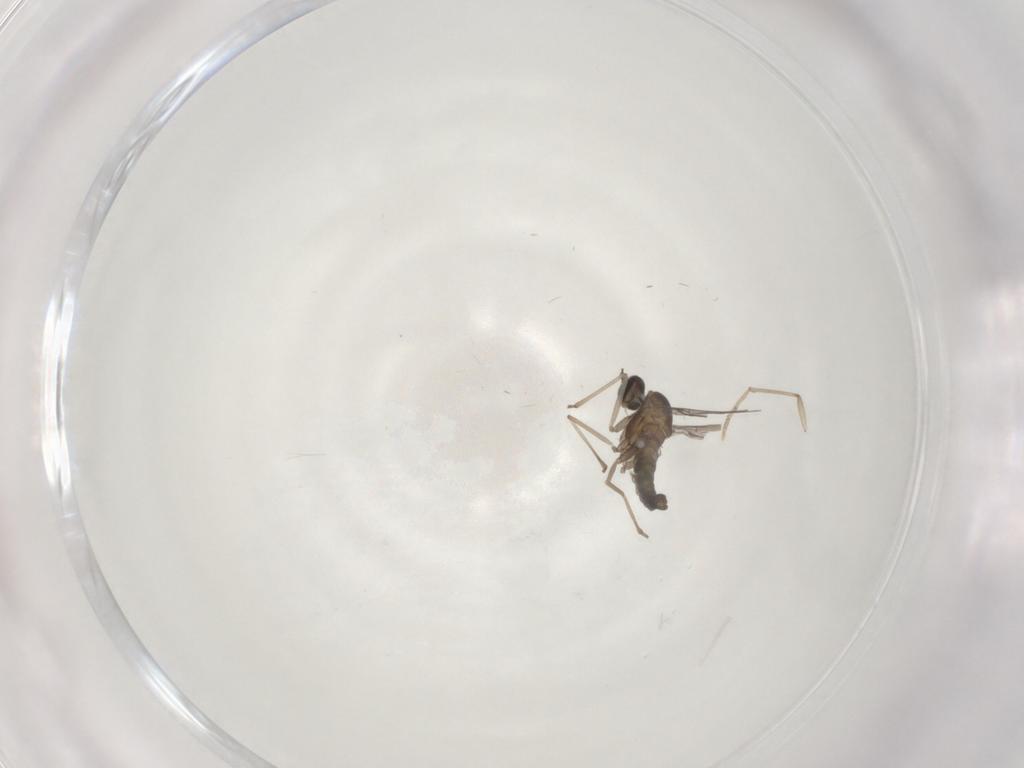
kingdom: Animalia
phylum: Arthropoda
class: Insecta
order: Diptera
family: Cecidomyiidae
